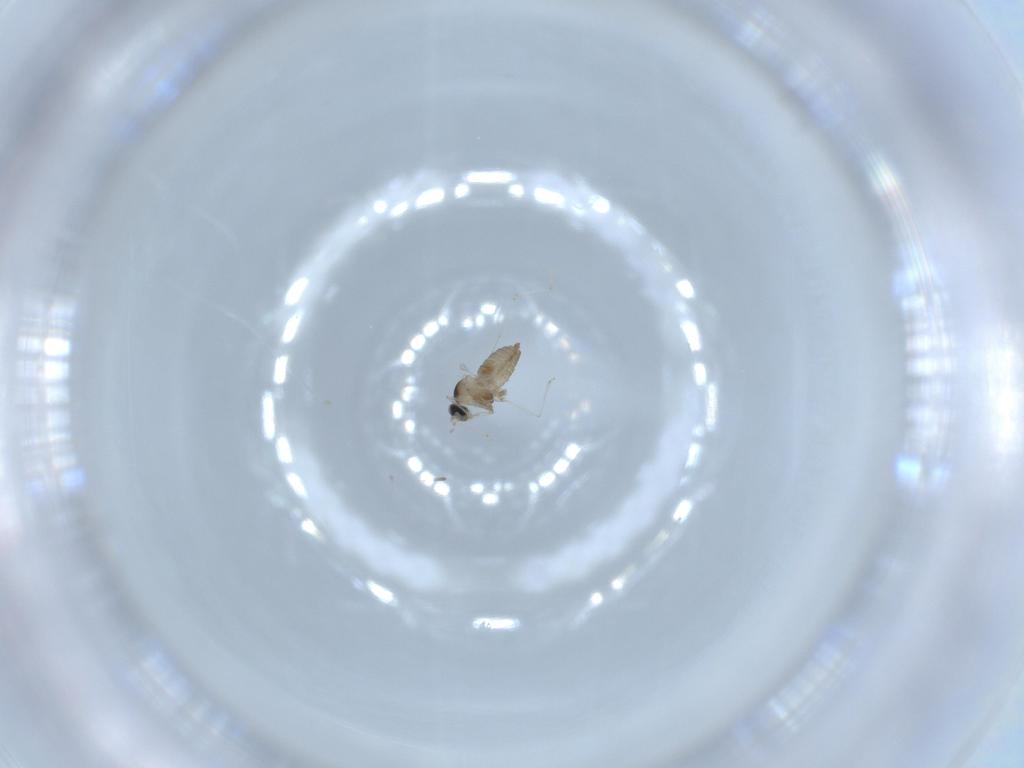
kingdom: Animalia
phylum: Arthropoda
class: Insecta
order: Diptera
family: Cecidomyiidae
